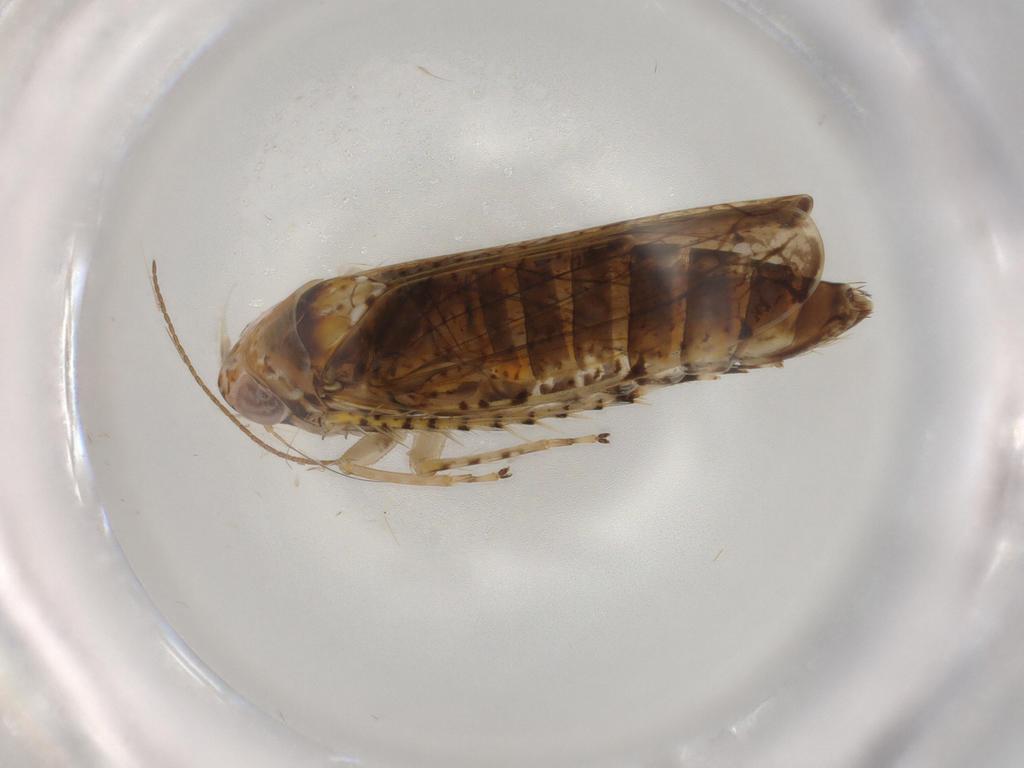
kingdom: Animalia
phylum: Arthropoda
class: Insecta
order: Hemiptera
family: Cicadellidae
